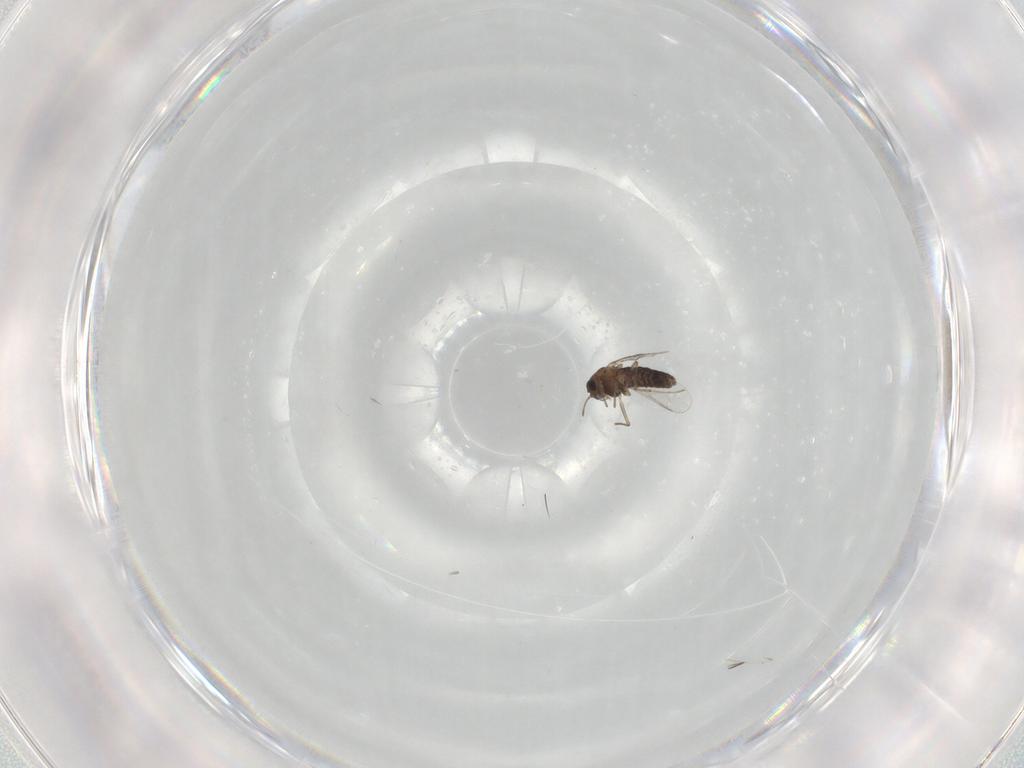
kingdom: Animalia
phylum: Arthropoda
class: Insecta
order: Diptera
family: Chironomidae
